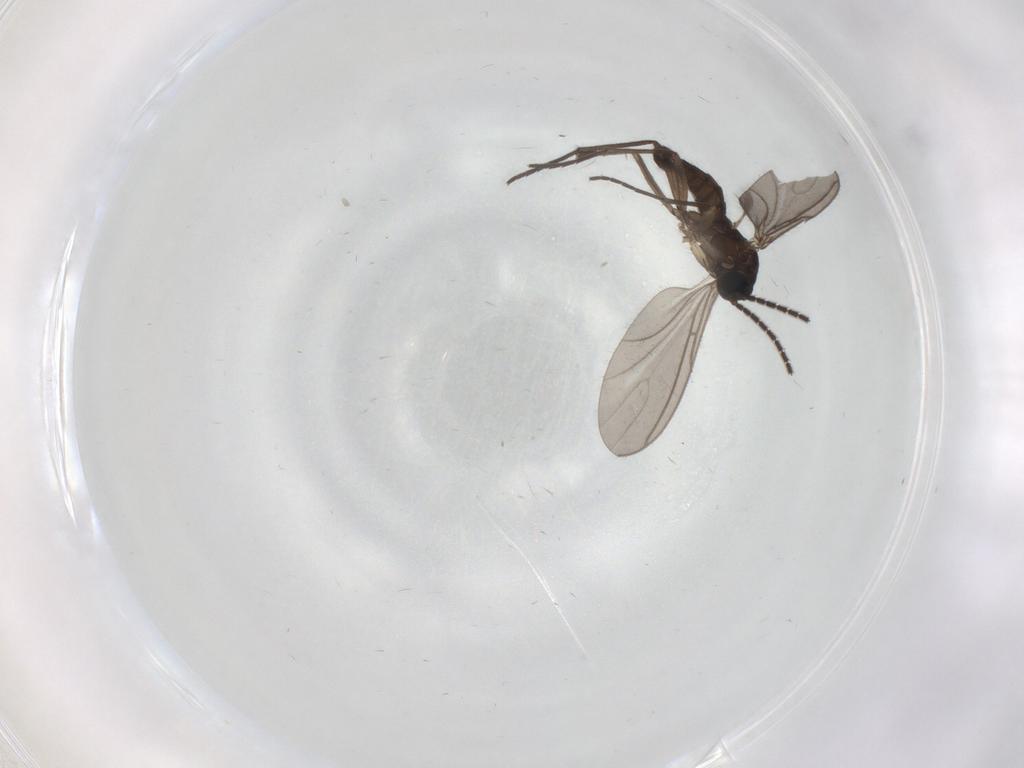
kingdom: Animalia
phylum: Arthropoda
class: Insecta
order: Diptera
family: Sciaridae
